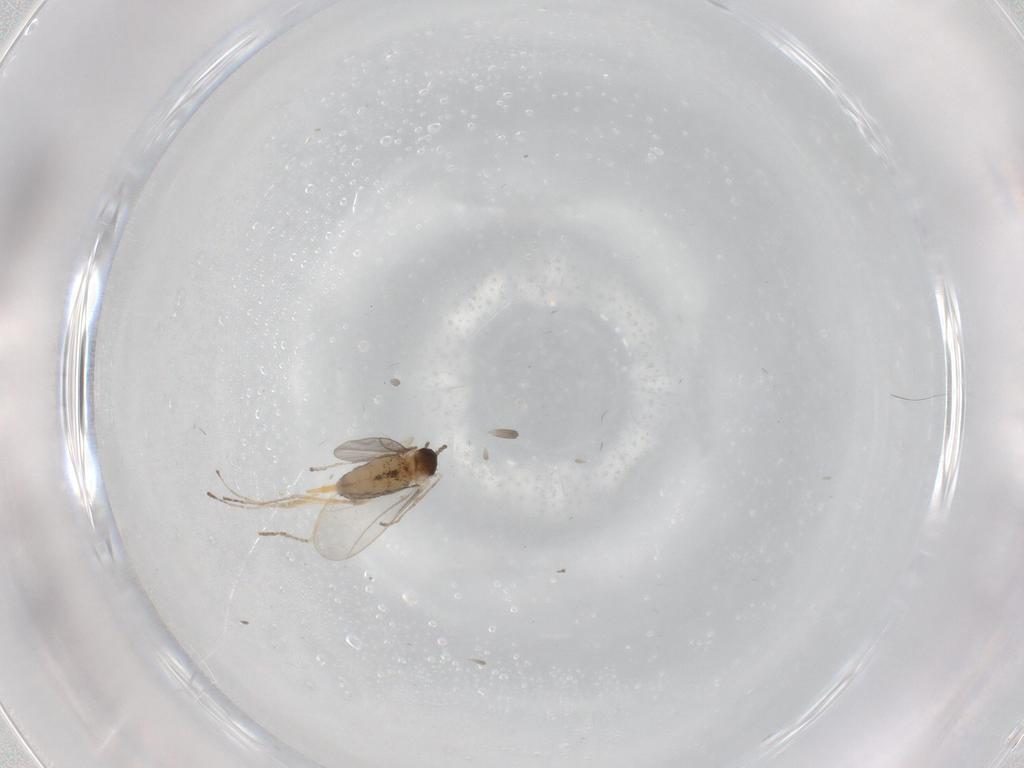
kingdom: Animalia
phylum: Arthropoda
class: Insecta
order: Diptera
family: Cecidomyiidae
